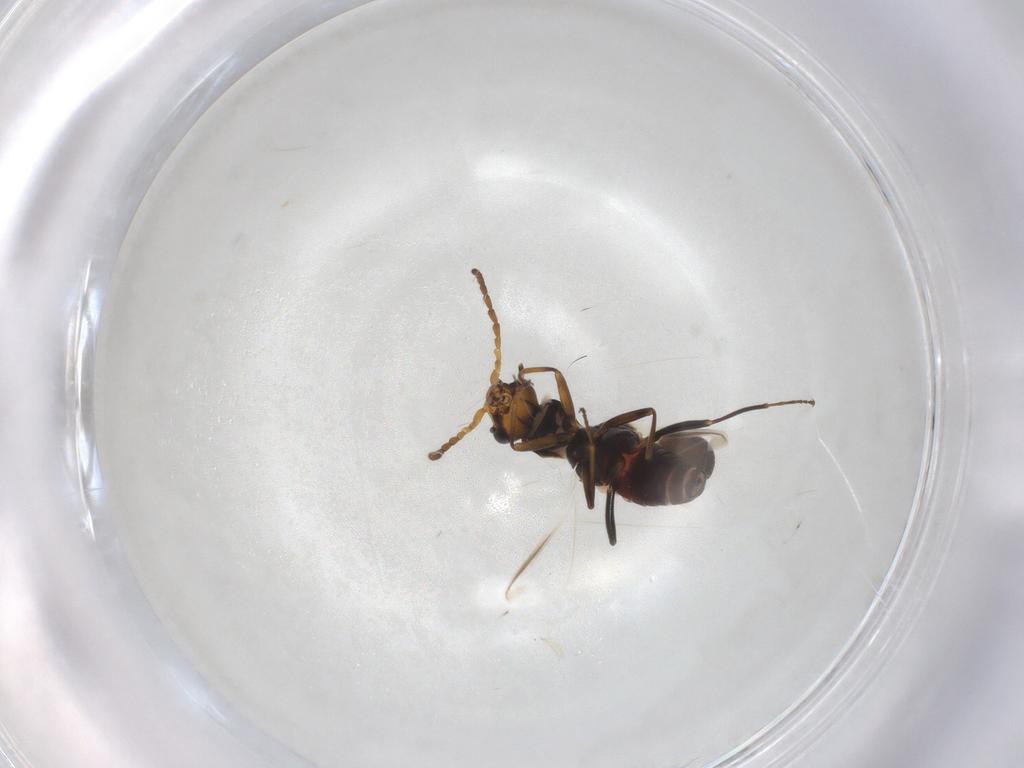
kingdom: Animalia
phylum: Arthropoda
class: Insecta
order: Coleoptera
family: Melyridae
